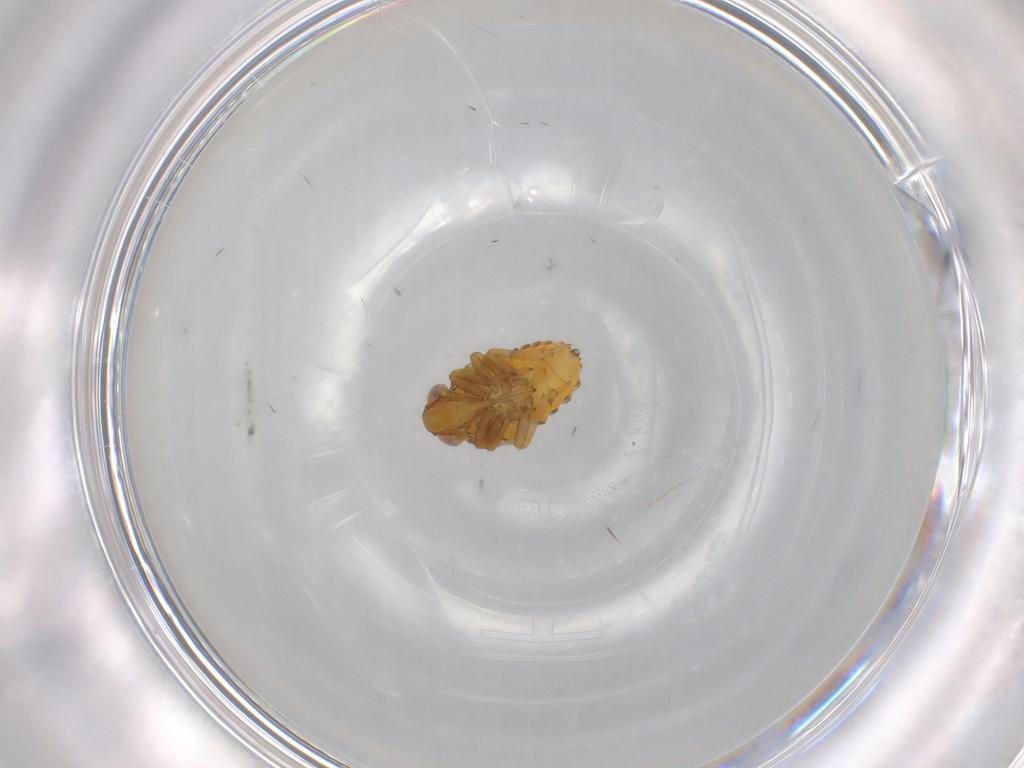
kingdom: Animalia
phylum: Arthropoda
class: Insecta
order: Hemiptera
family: Issidae
